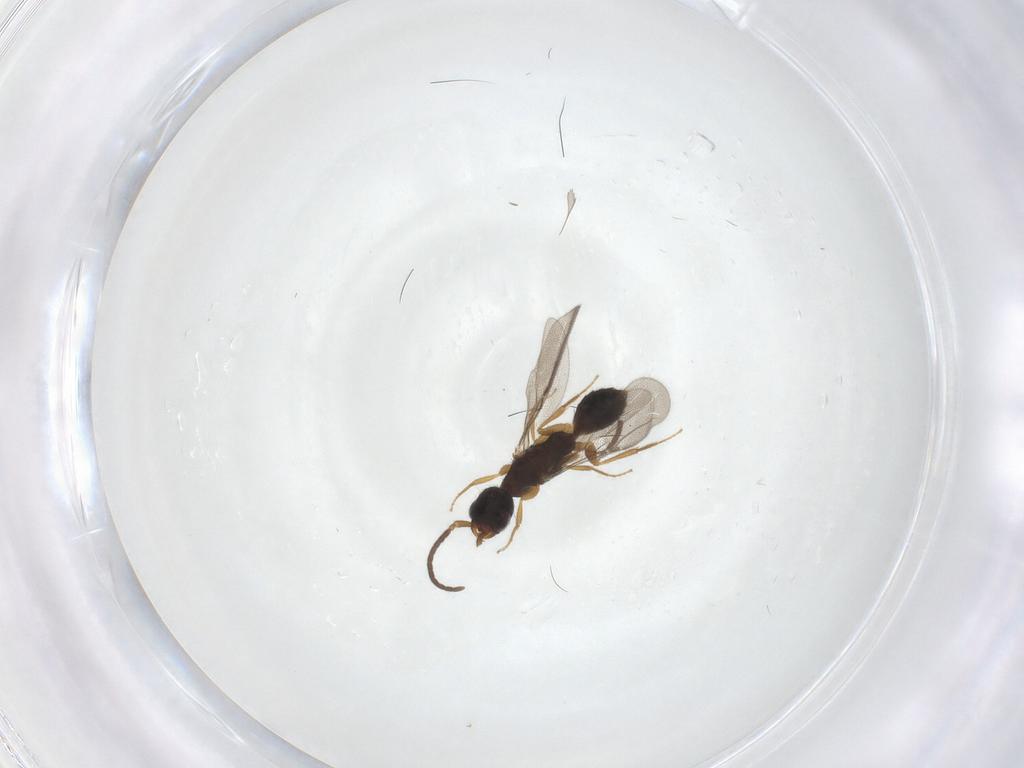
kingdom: Animalia
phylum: Arthropoda
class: Insecta
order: Hymenoptera
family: Bethylidae
